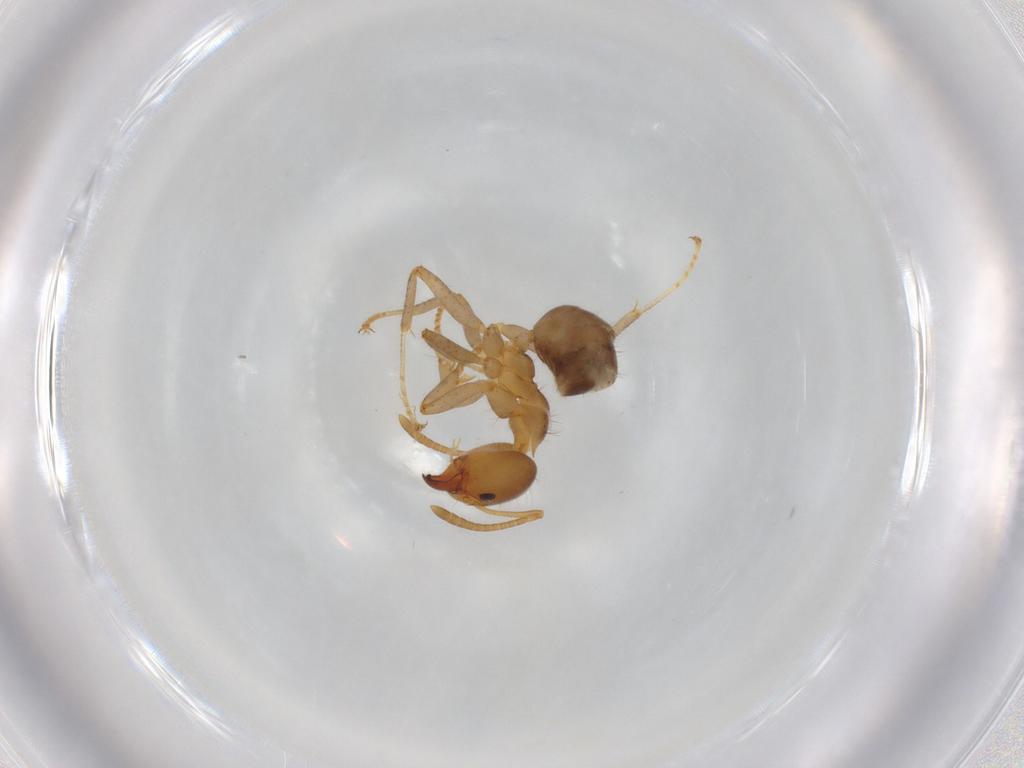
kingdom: Animalia
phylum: Arthropoda
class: Insecta
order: Hymenoptera
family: Formicidae
